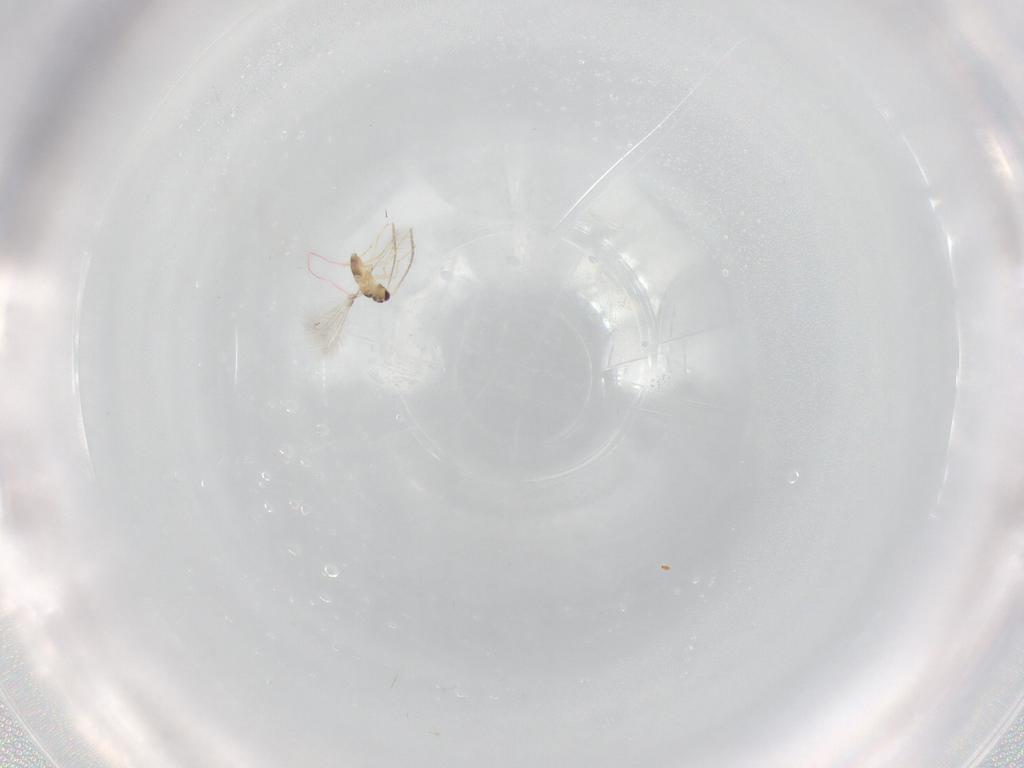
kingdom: Animalia
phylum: Arthropoda
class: Insecta
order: Hymenoptera
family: Mymaridae
